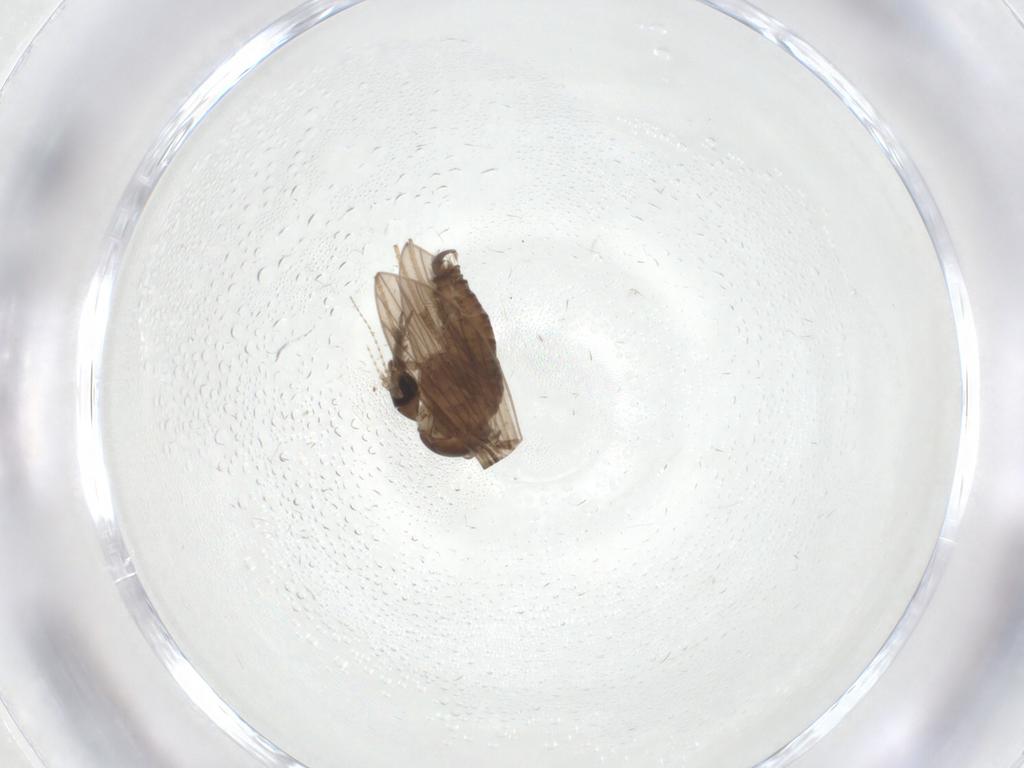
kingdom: Animalia
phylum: Arthropoda
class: Insecta
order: Diptera
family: Psychodidae
